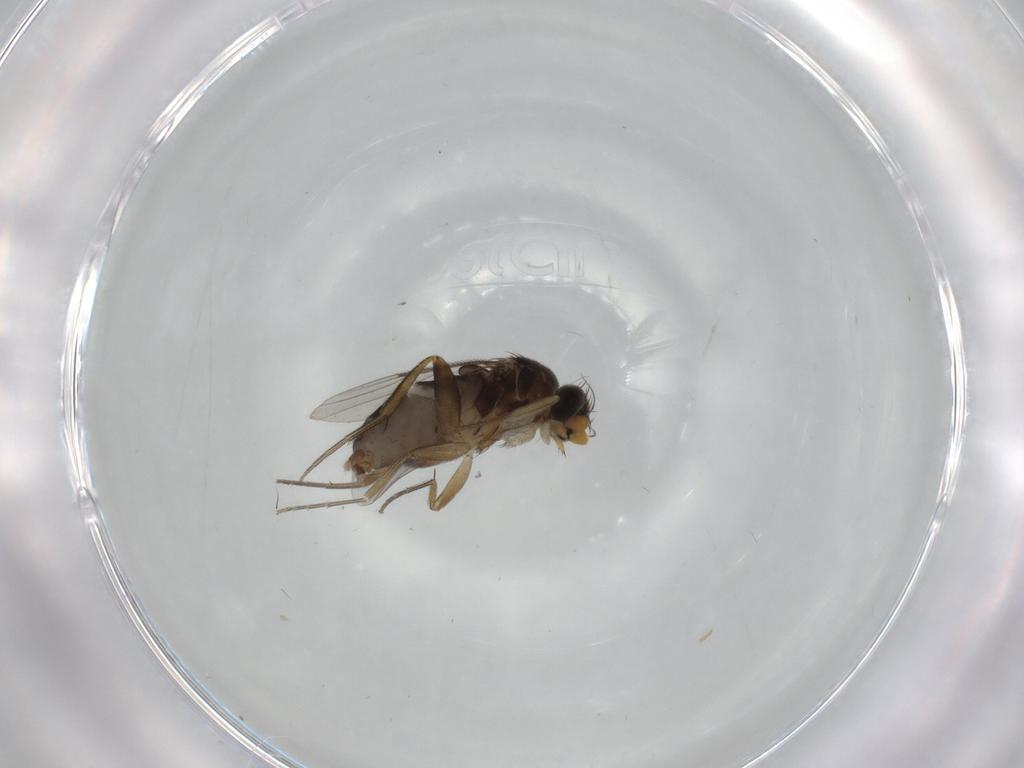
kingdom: Animalia
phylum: Arthropoda
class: Insecta
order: Diptera
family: Phoridae
